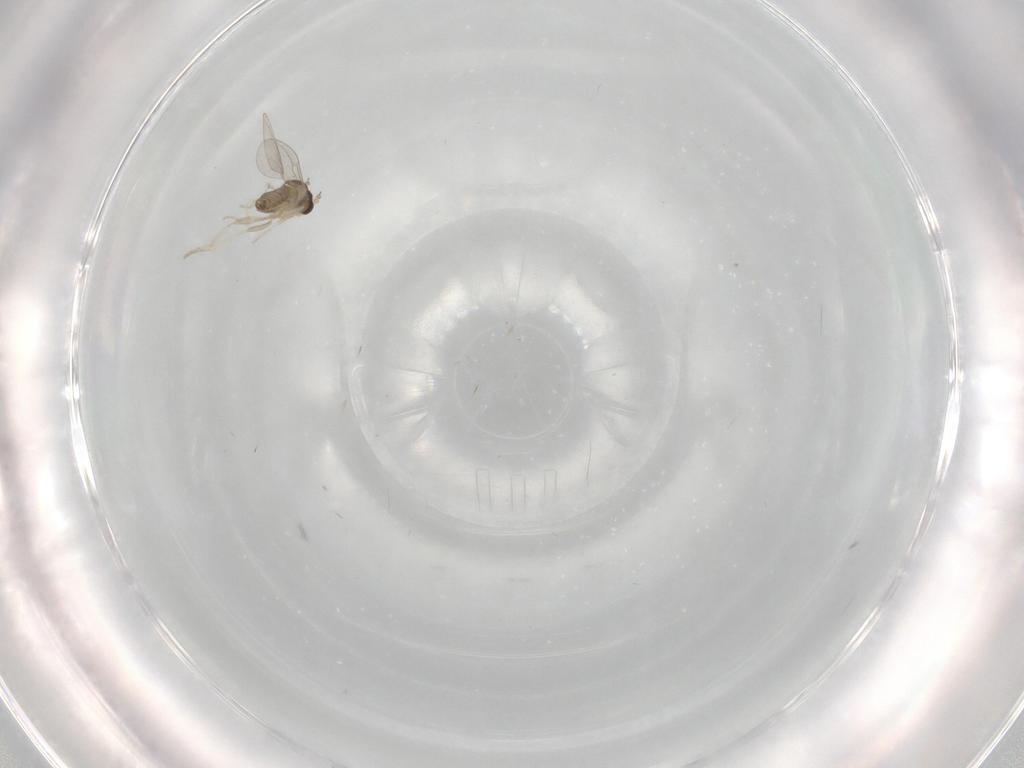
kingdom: Animalia
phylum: Arthropoda
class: Insecta
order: Diptera
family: Cecidomyiidae
